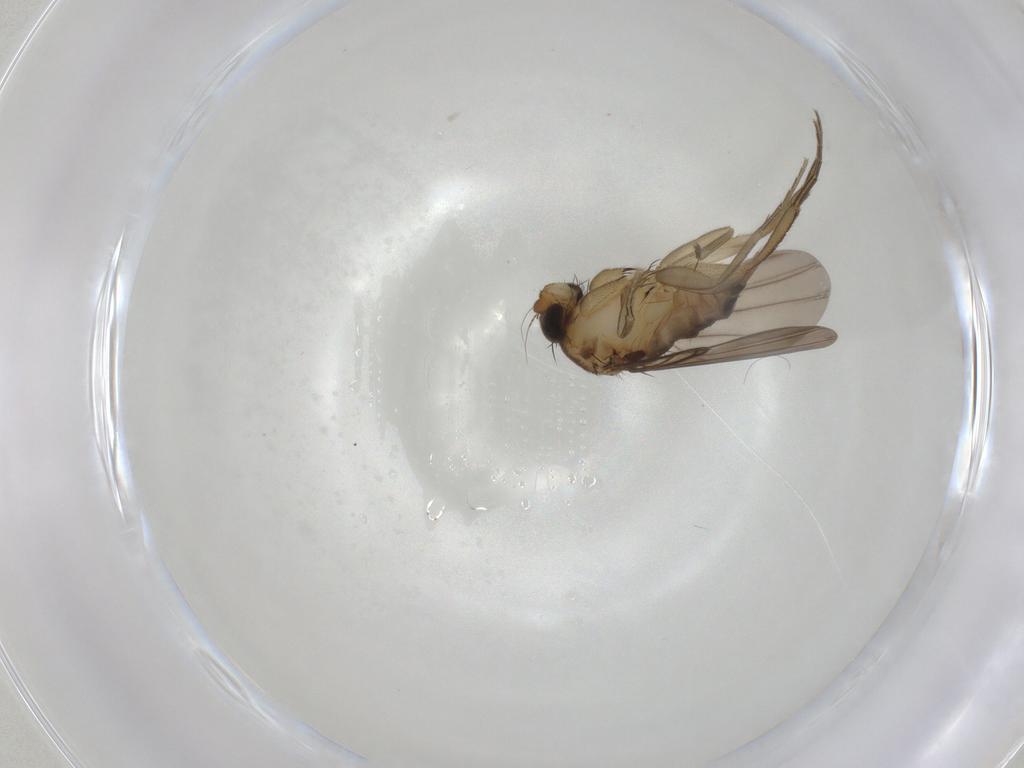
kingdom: Animalia
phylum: Arthropoda
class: Insecta
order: Diptera
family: Phoridae
